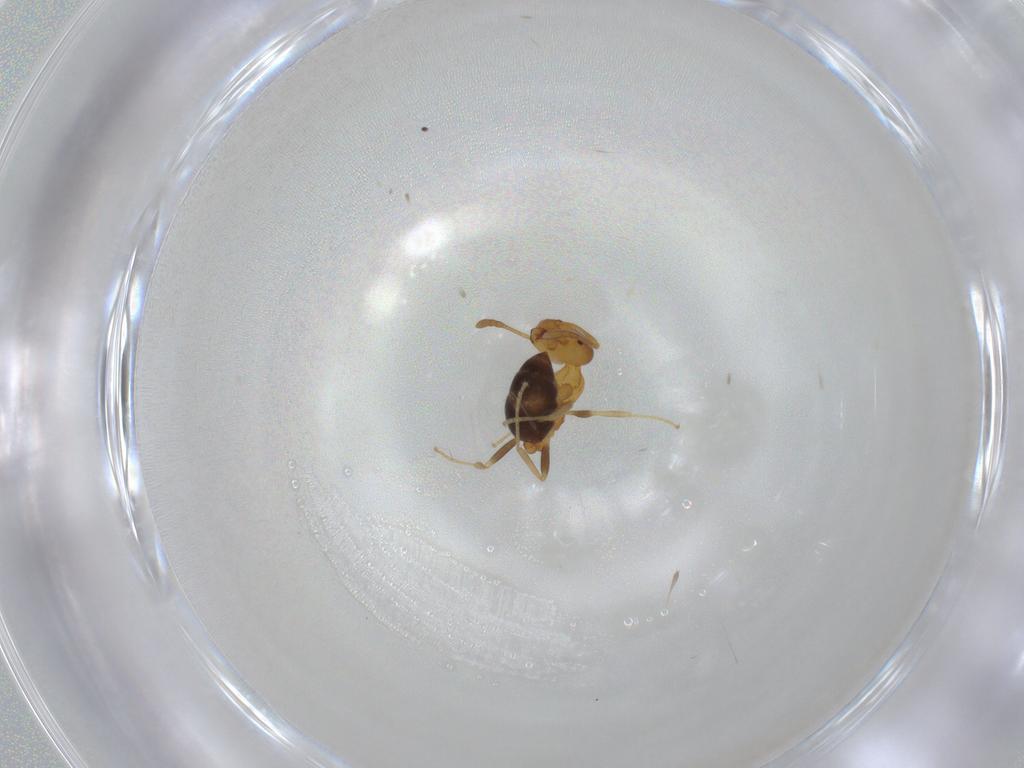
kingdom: Animalia
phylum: Arthropoda
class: Insecta
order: Hymenoptera
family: Formicidae
